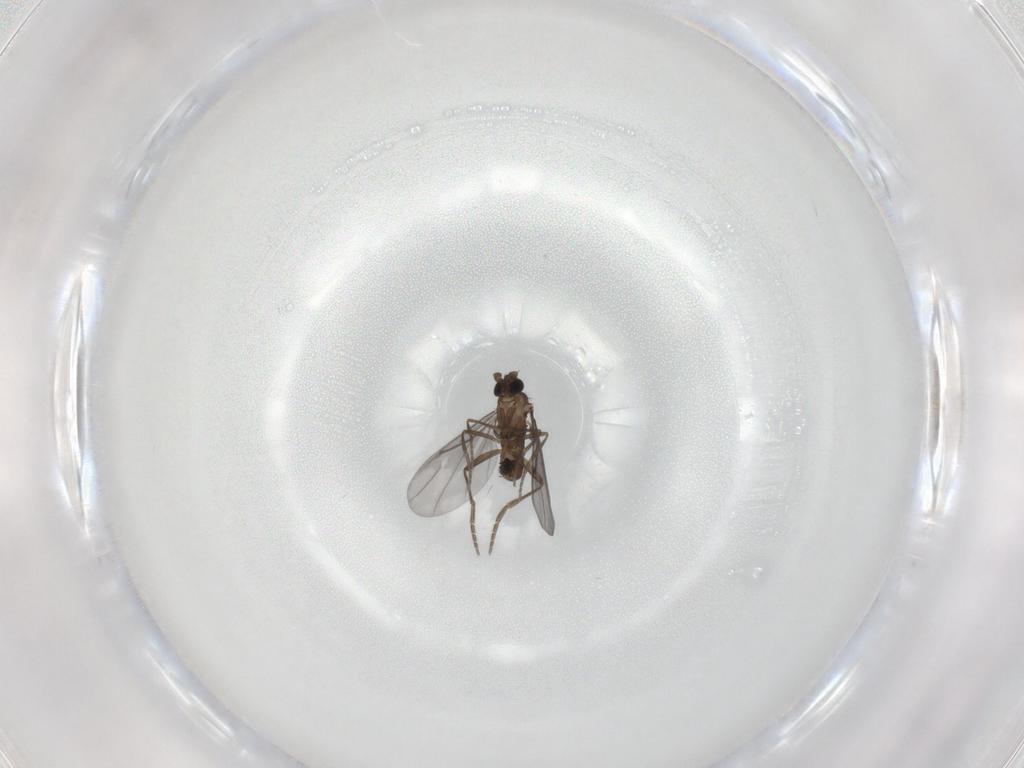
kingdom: Animalia
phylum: Arthropoda
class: Insecta
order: Diptera
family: Phoridae
